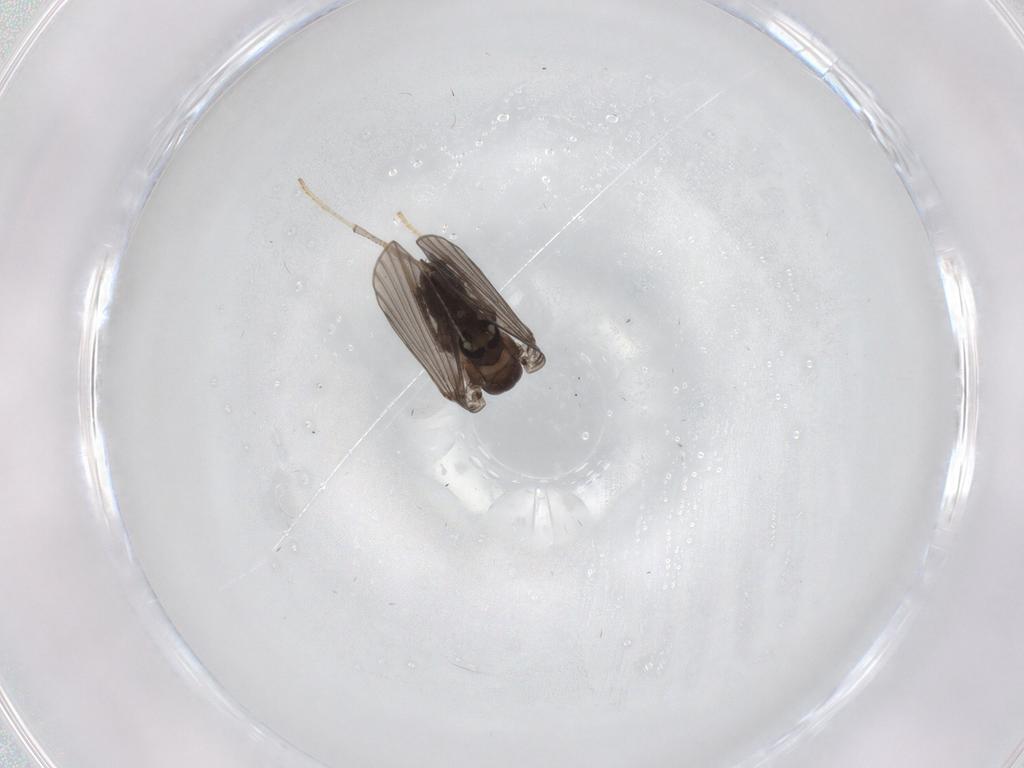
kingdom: Animalia
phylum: Arthropoda
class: Insecta
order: Diptera
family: Psychodidae
